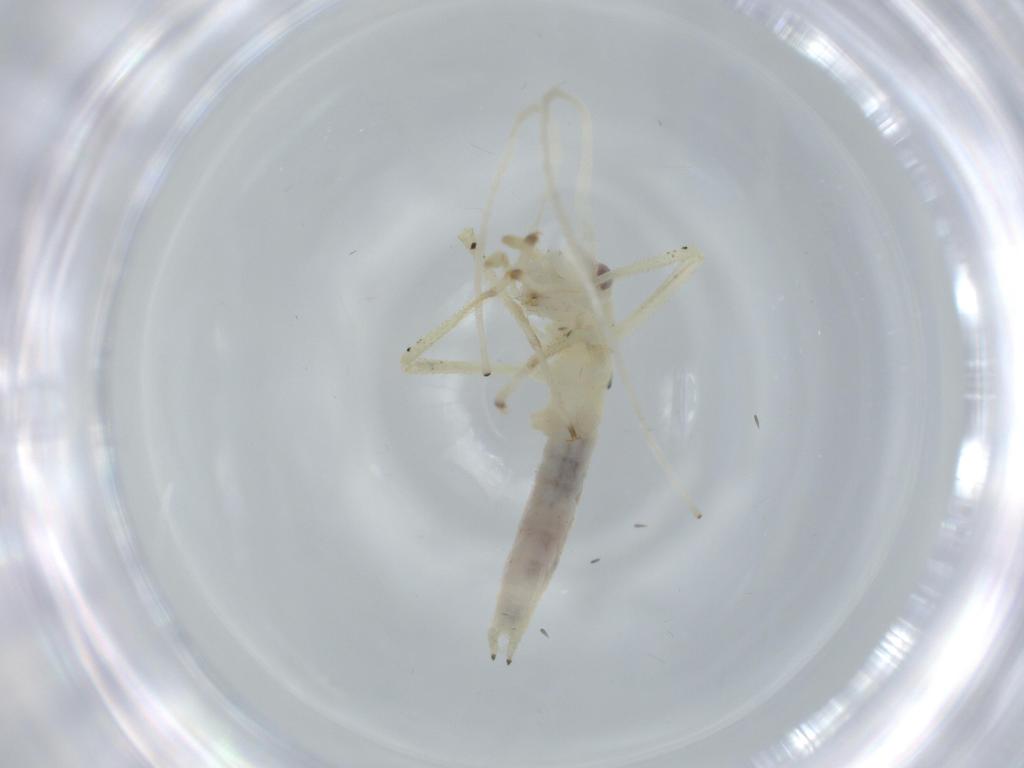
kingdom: Animalia
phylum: Arthropoda
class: Insecta
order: Orthoptera
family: Oecanthidae
